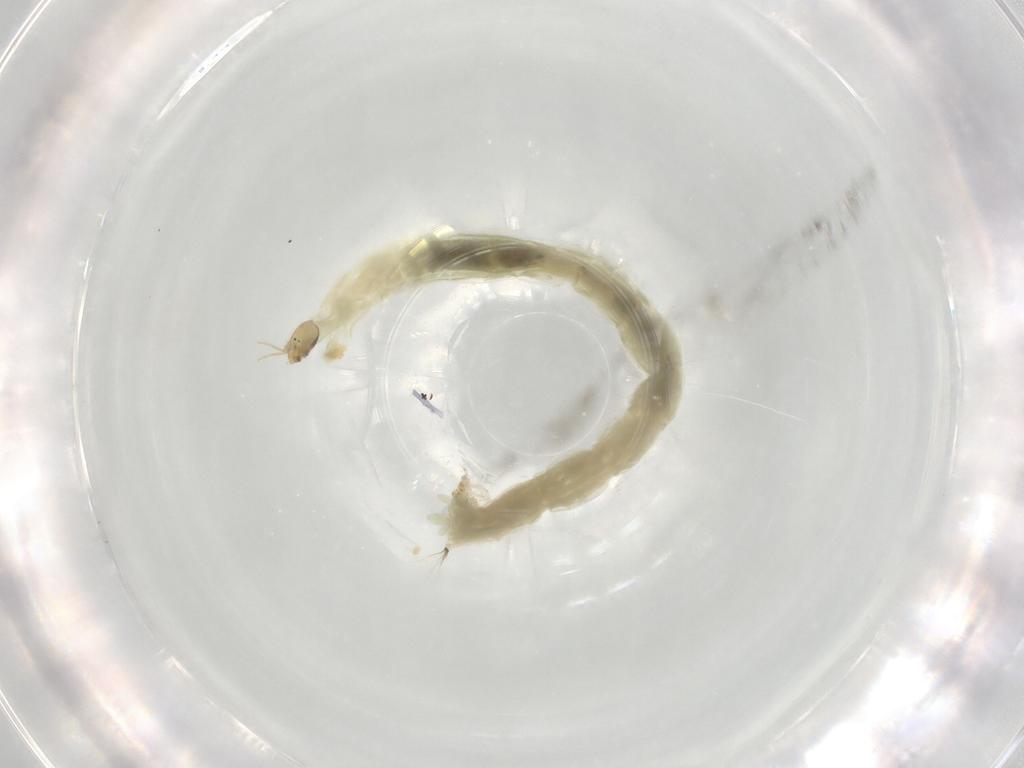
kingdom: Animalia
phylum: Arthropoda
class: Insecta
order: Diptera
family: Chironomidae
